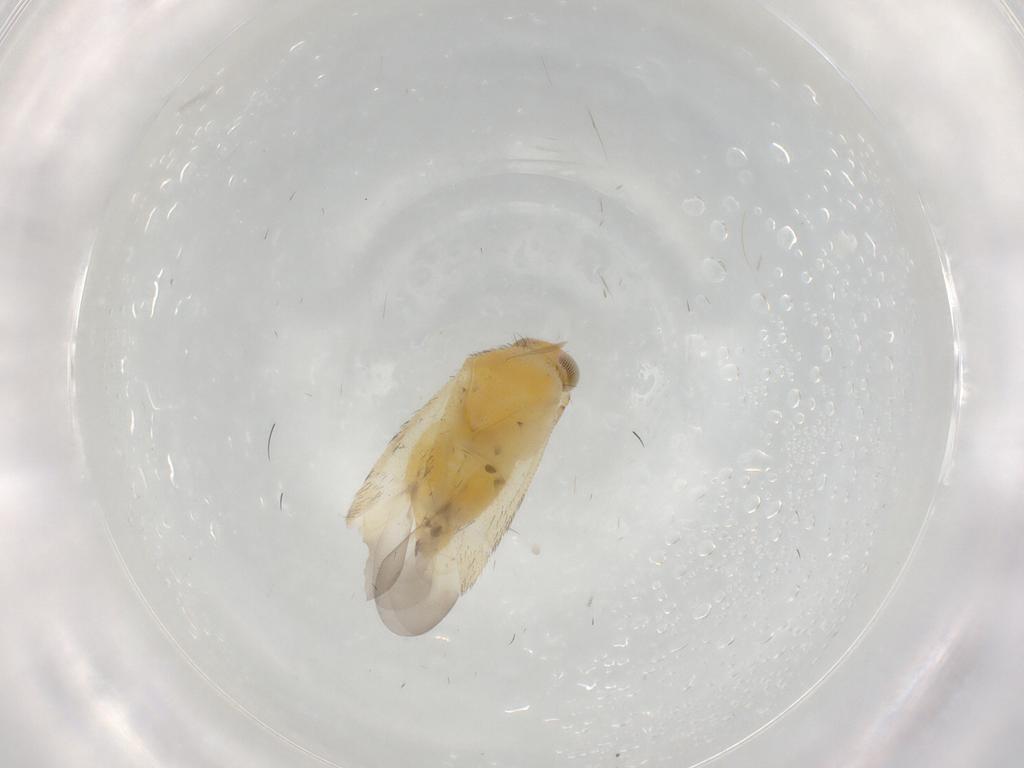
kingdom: Animalia
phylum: Arthropoda
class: Insecta
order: Hemiptera
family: Miridae
